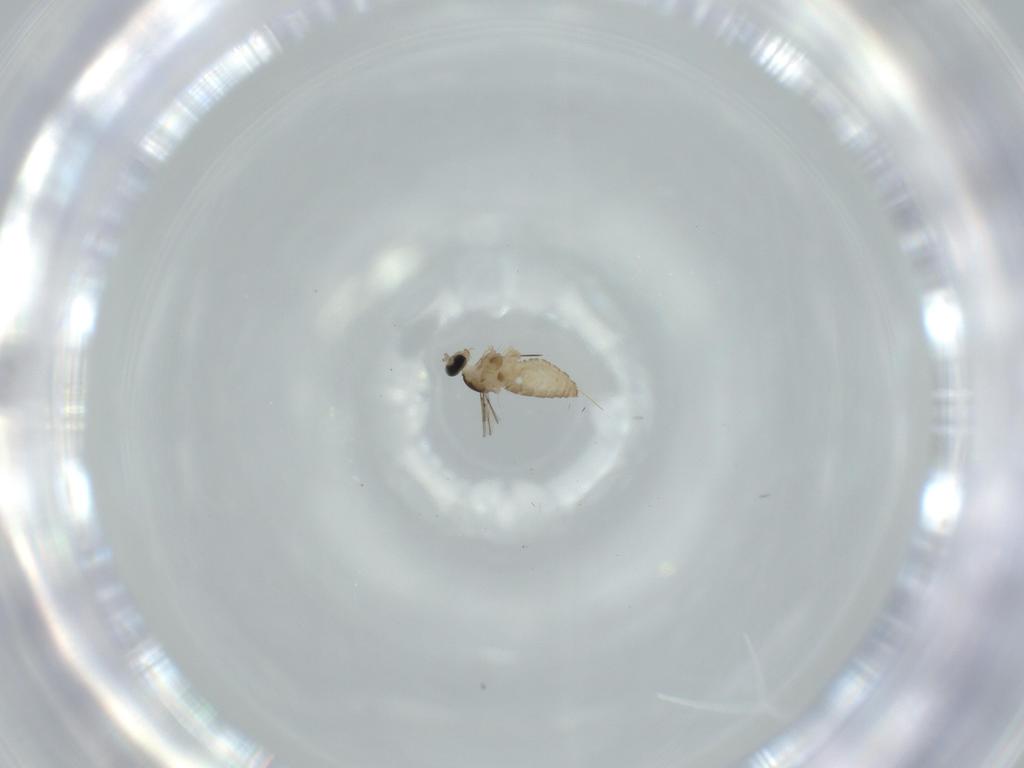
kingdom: Animalia
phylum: Arthropoda
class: Insecta
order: Diptera
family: Cecidomyiidae
